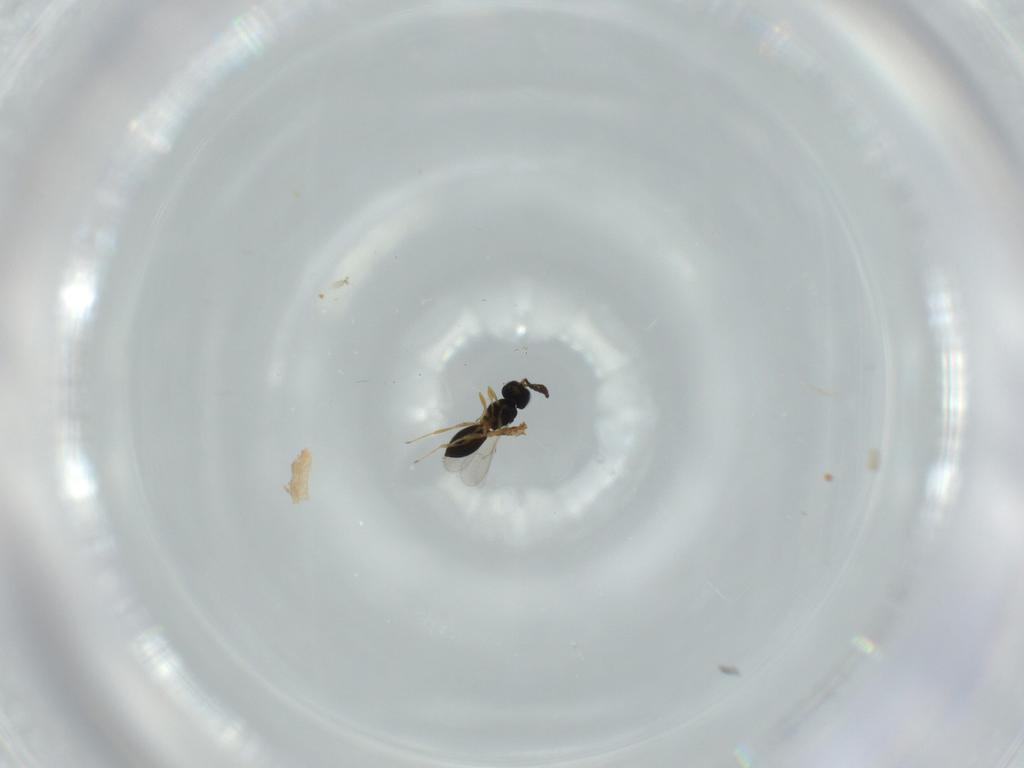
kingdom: Animalia
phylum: Arthropoda
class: Insecta
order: Hymenoptera
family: Scelionidae
